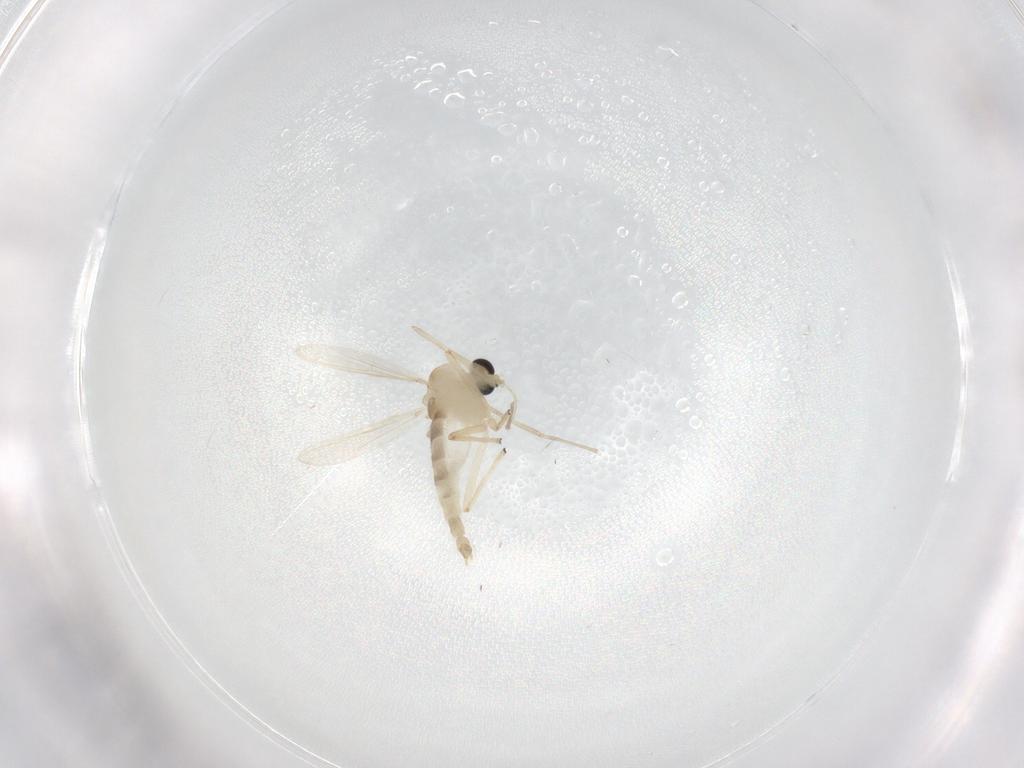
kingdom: Animalia
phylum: Arthropoda
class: Insecta
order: Diptera
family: Chironomidae
